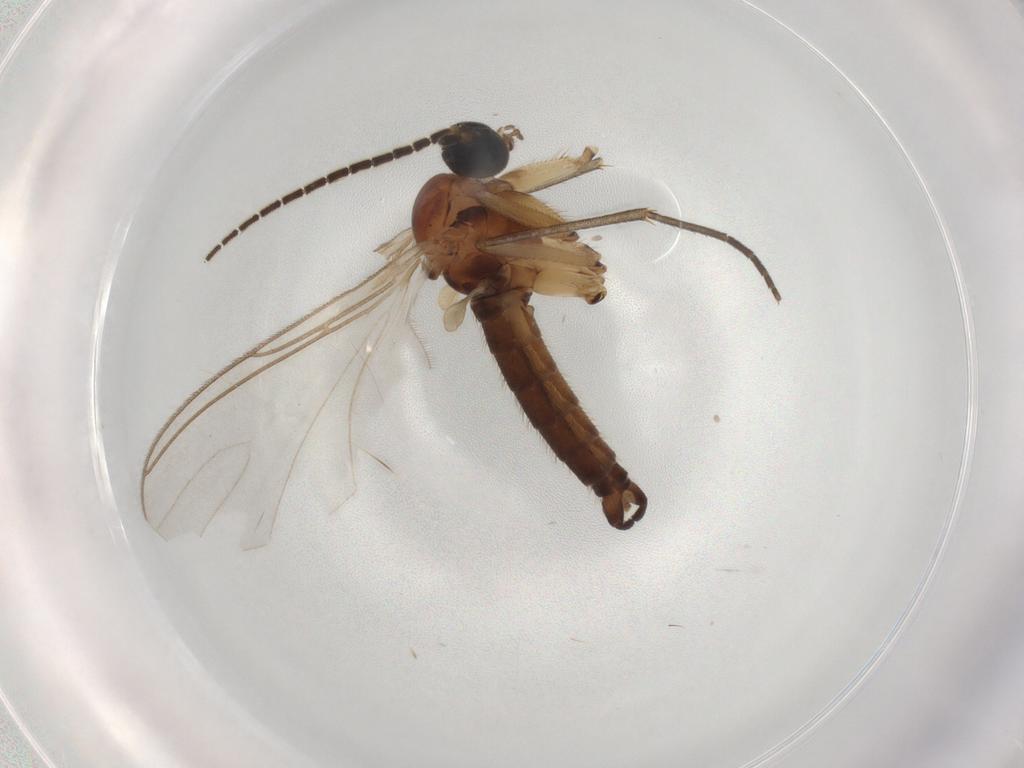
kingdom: Animalia
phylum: Arthropoda
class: Insecta
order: Diptera
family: Sciaridae
